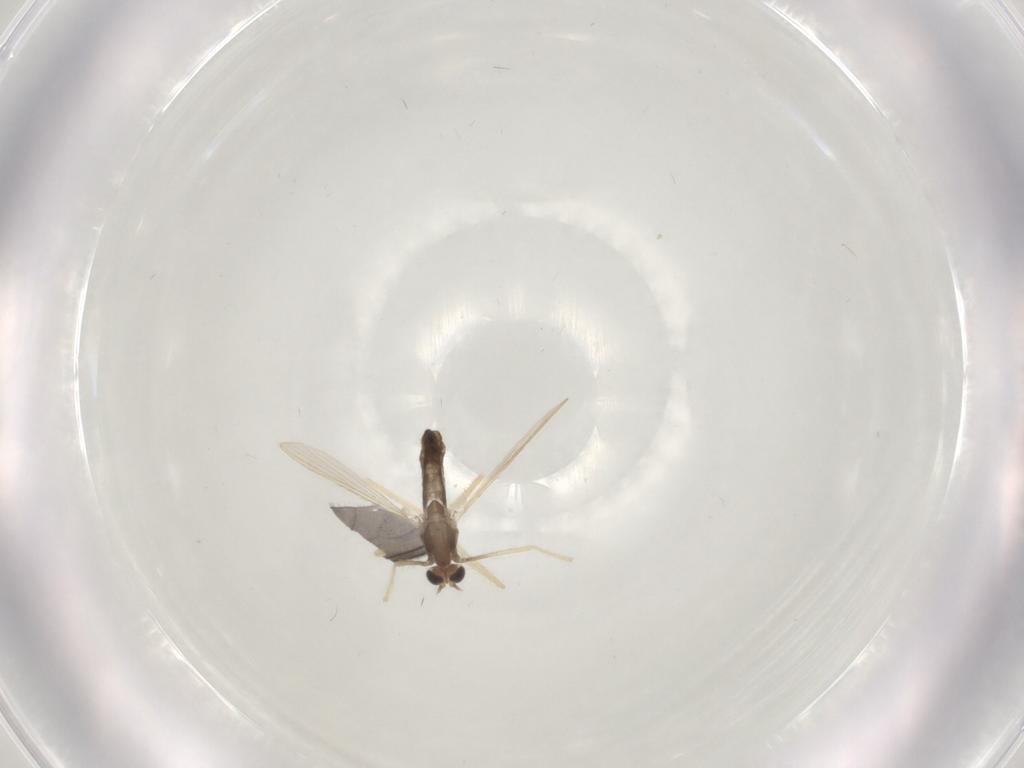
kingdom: Animalia
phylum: Arthropoda
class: Insecta
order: Diptera
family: Chironomidae
